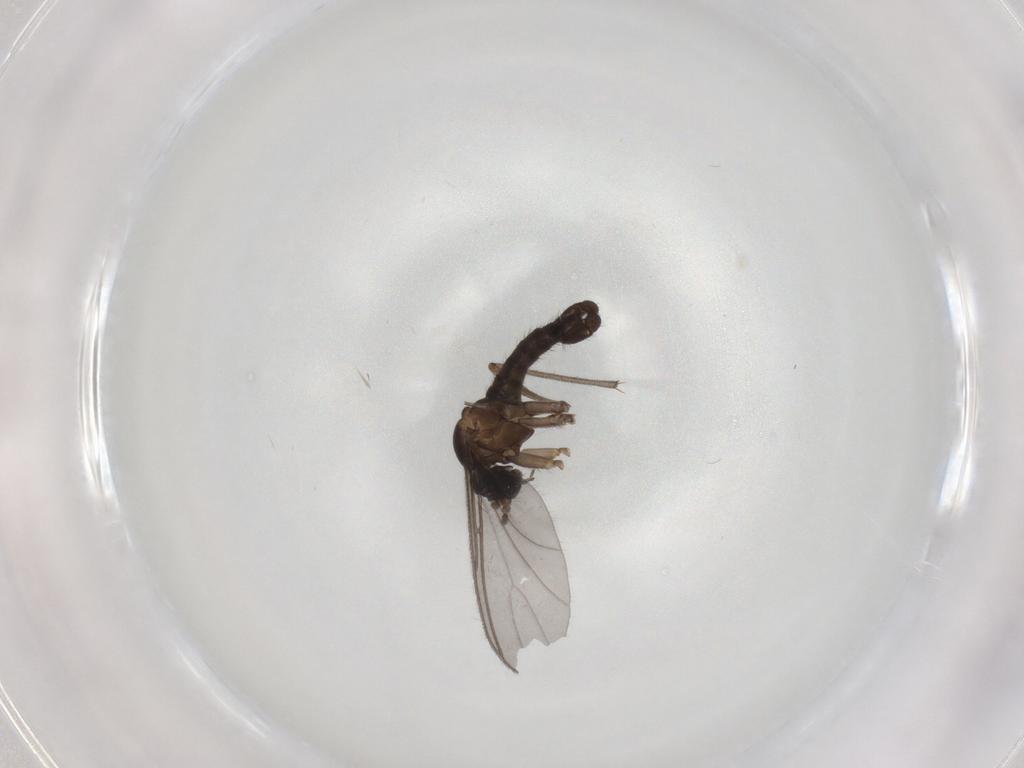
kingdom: Animalia
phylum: Arthropoda
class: Insecta
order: Diptera
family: Sciaridae
